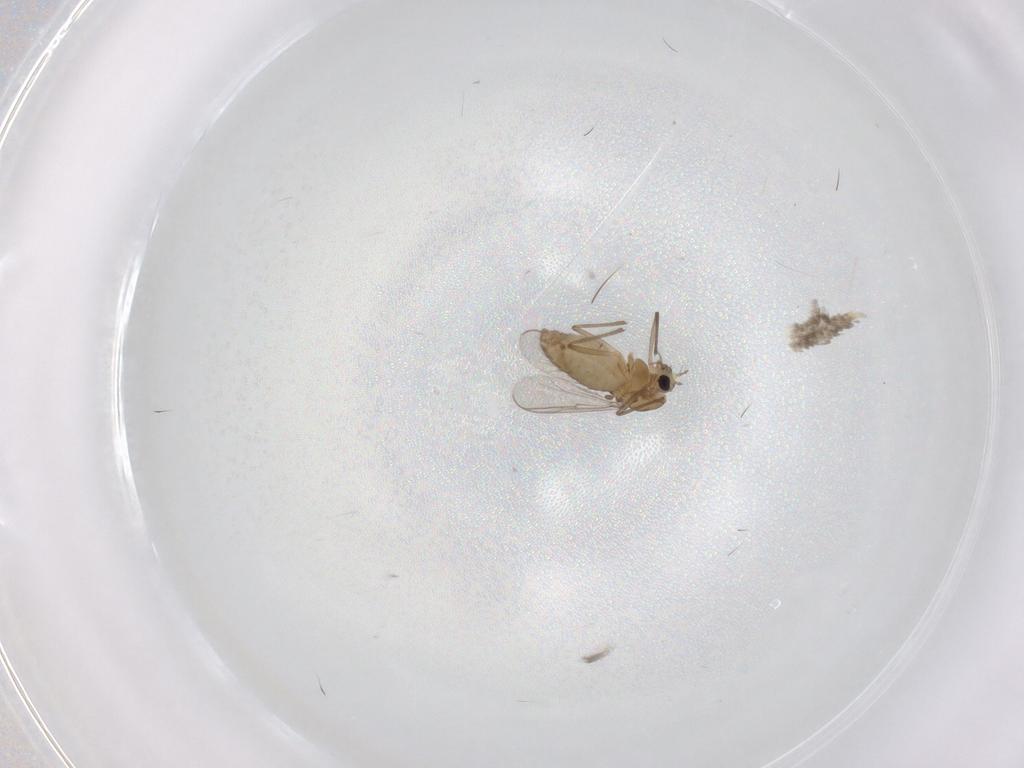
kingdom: Animalia
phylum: Arthropoda
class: Insecta
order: Diptera
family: Chironomidae
